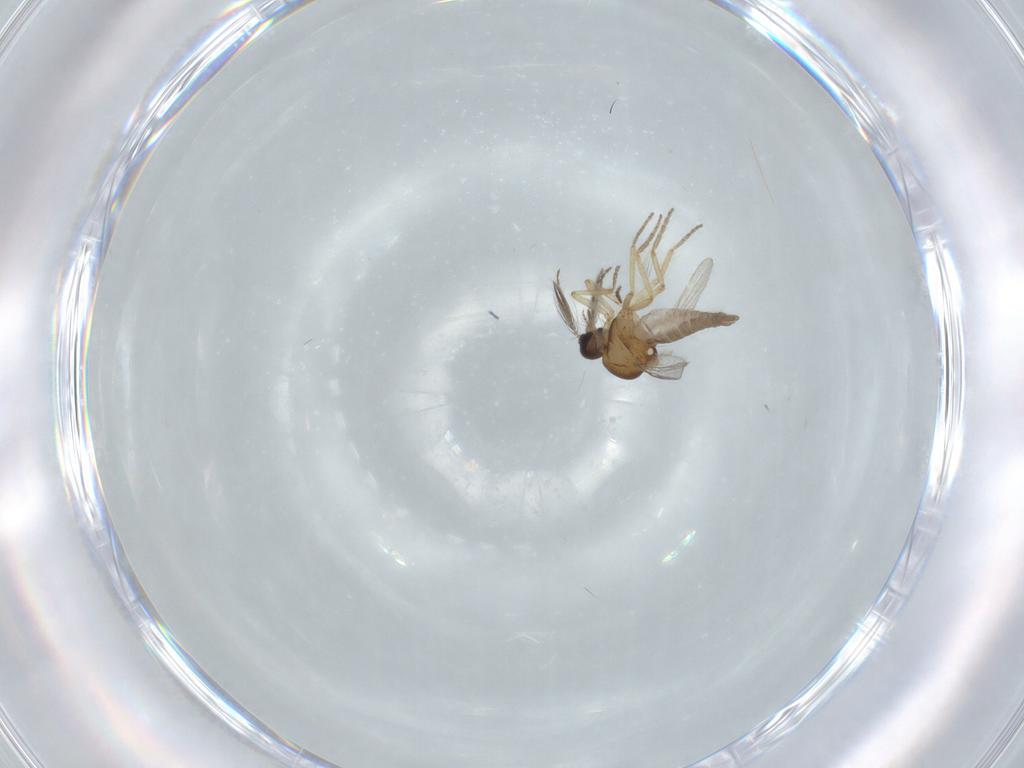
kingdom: Animalia
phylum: Arthropoda
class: Insecta
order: Diptera
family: Ceratopogonidae
